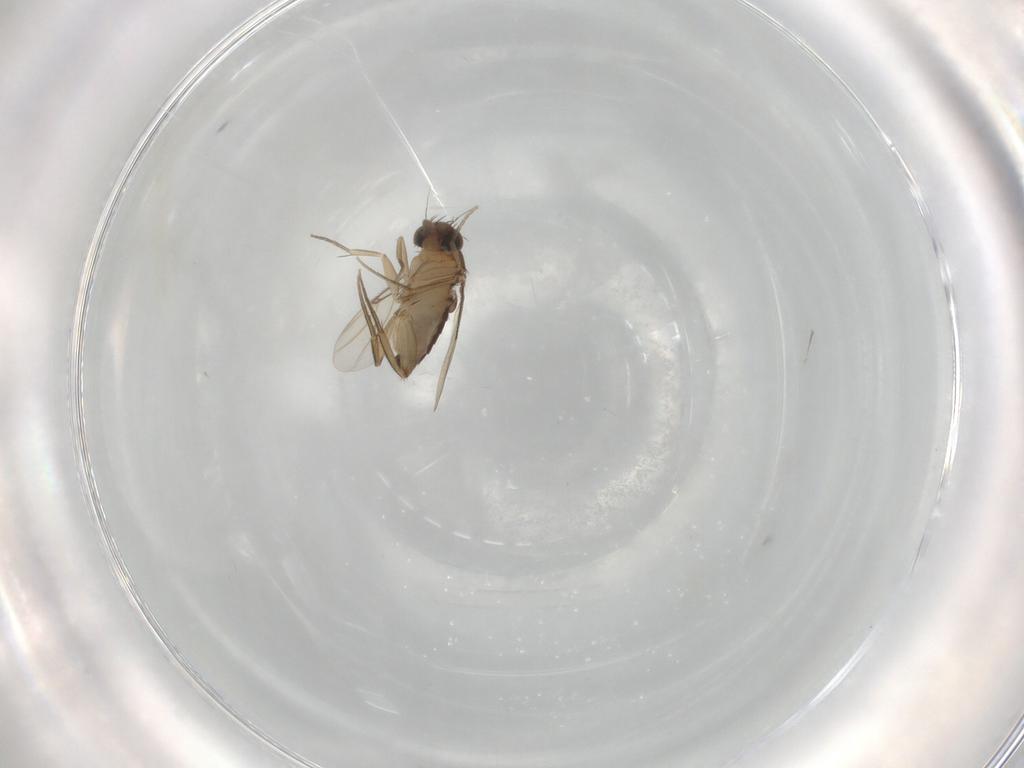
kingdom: Animalia
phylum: Arthropoda
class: Insecta
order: Diptera
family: Phoridae
